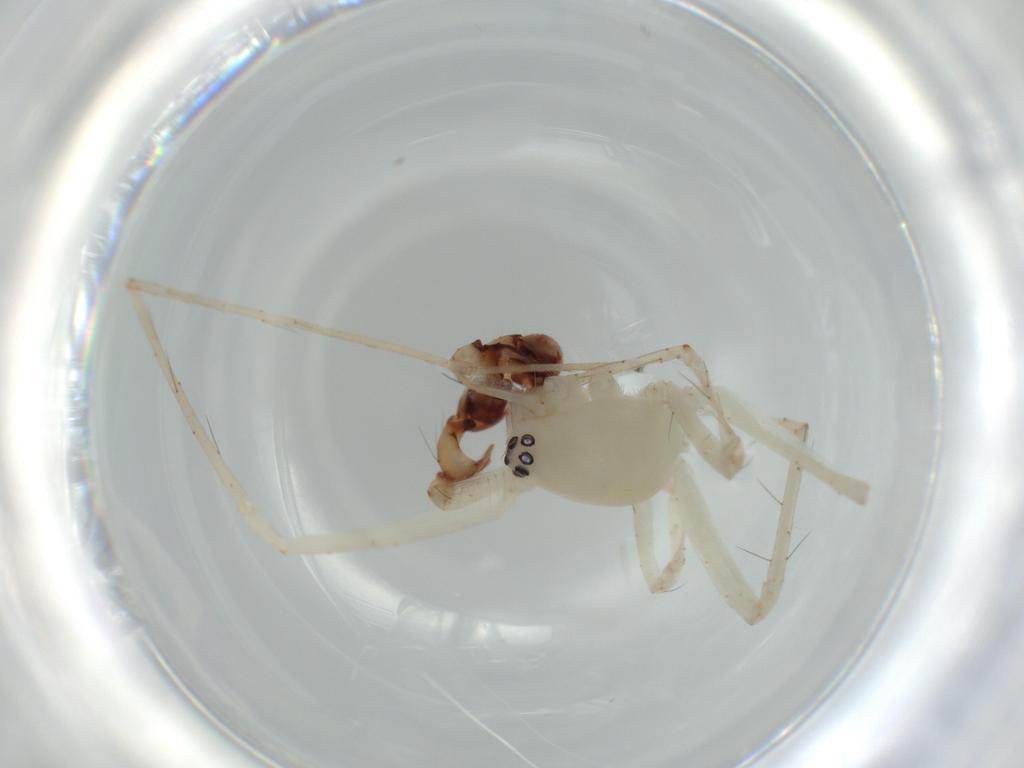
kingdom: Animalia
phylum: Arthropoda
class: Arachnida
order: Araneae
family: Anyphaenidae
